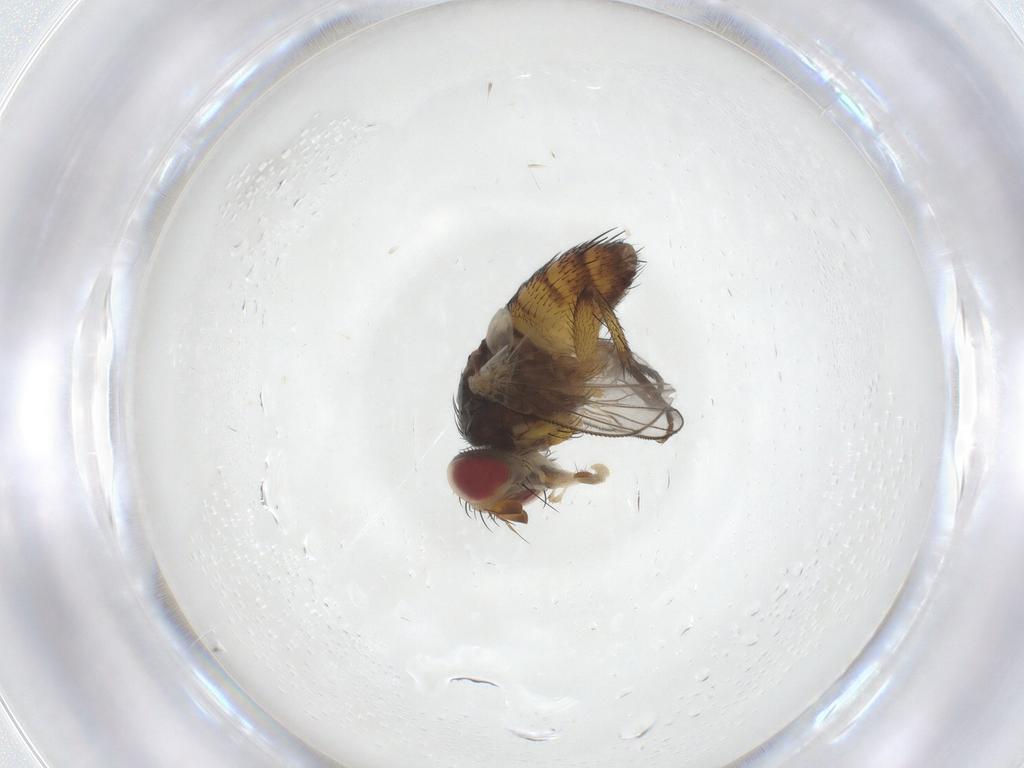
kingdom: Animalia
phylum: Arthropoda
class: Insecta
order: Diptera
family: Tachinidae
